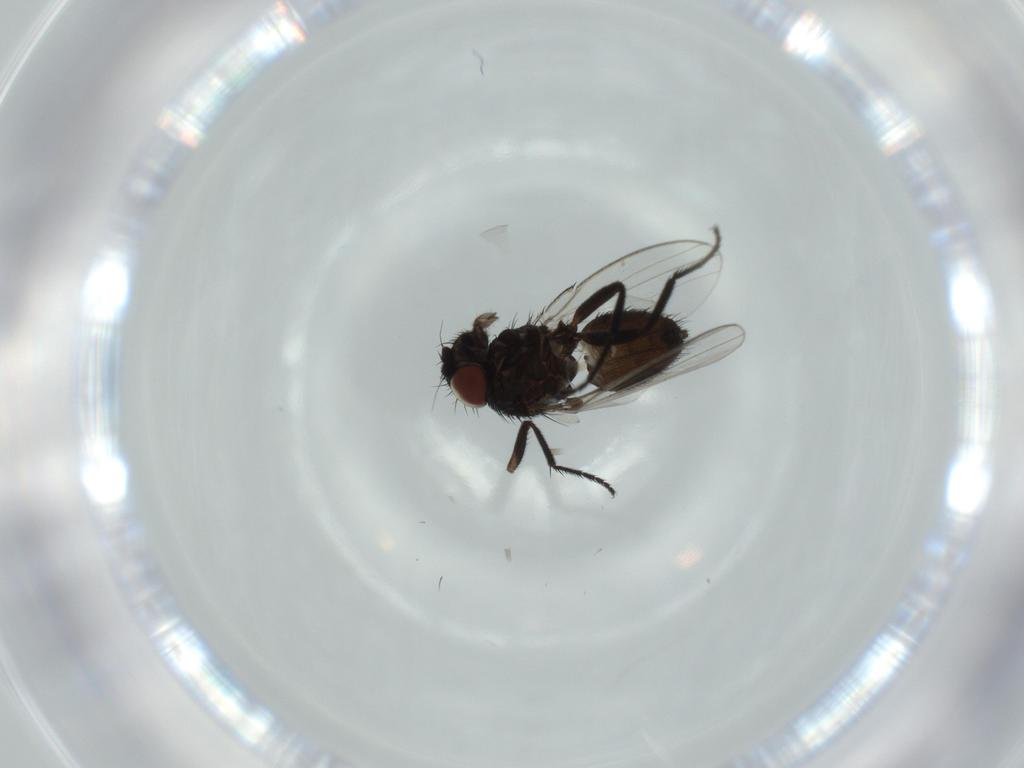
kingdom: Animalia
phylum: Arthropoda
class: Insecta
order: Diptera
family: Milichiidae
